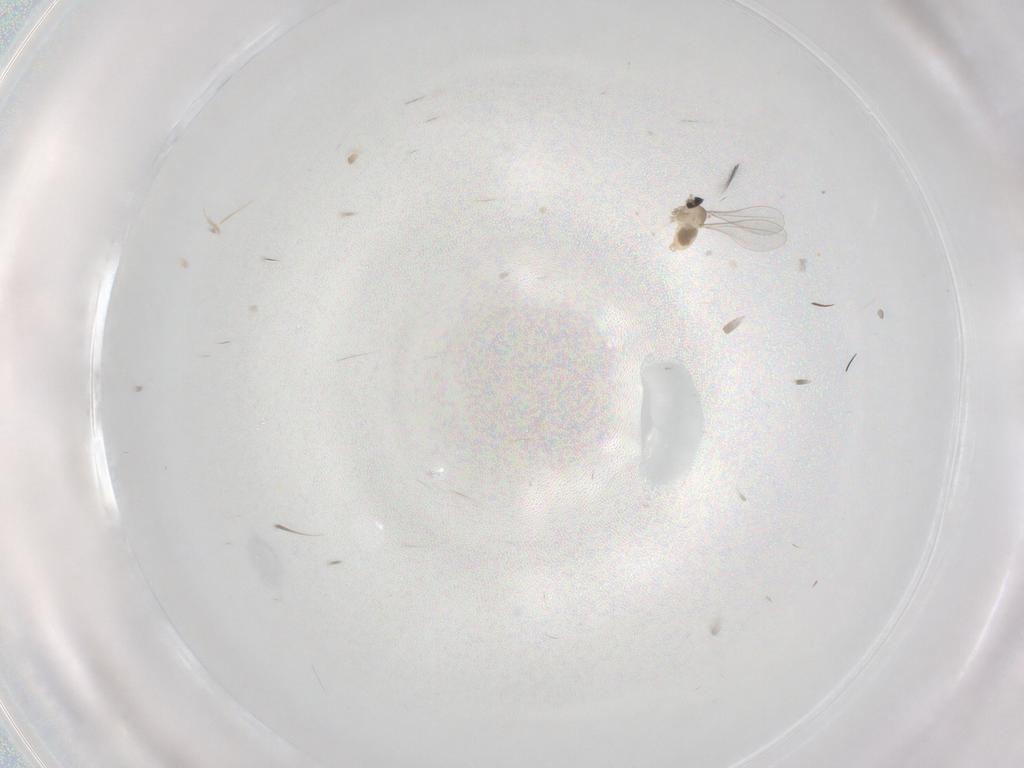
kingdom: Animalia
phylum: Arthropoda
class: Insecta
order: Diptera
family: Cecidomyiidae
